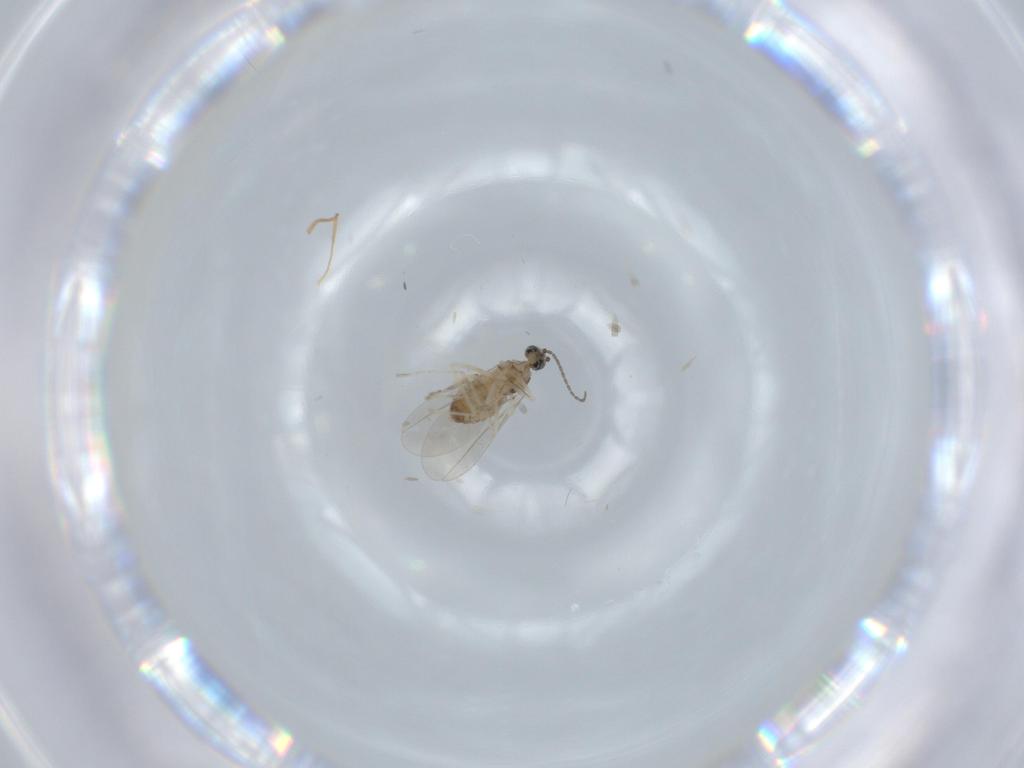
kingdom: Animalia
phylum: Arthropoda
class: Insecta
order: Diptera
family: Cecidomyiidae
